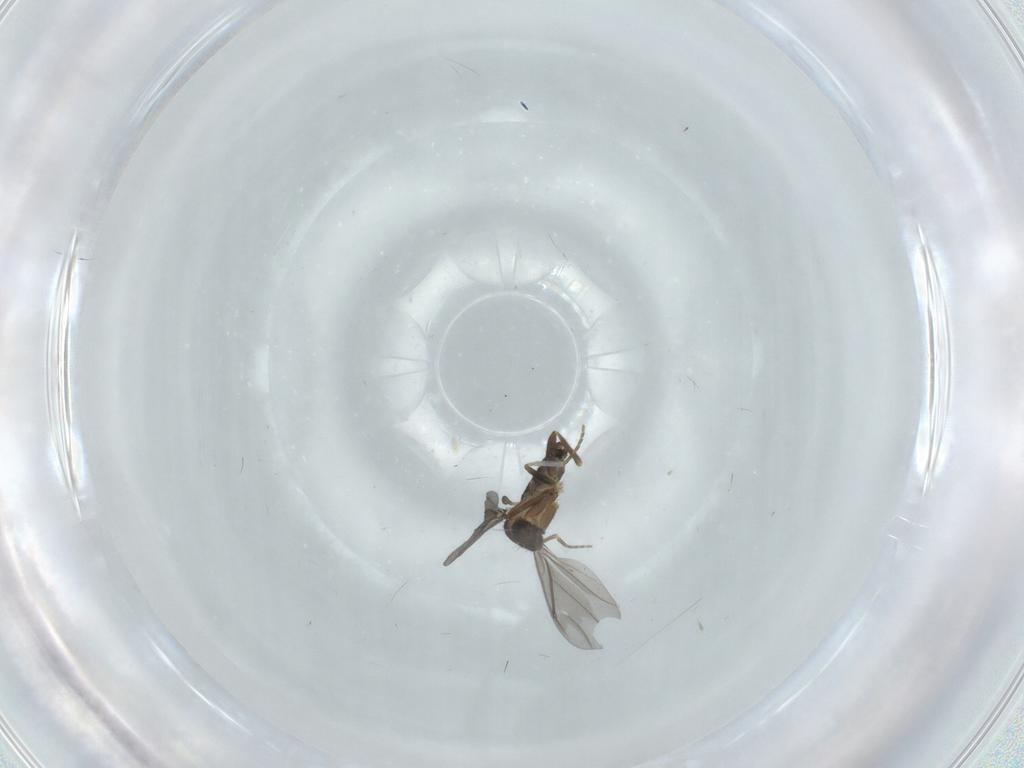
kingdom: Animalia
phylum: Arthropoda
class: Insecta
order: Diptera
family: Phoridae
